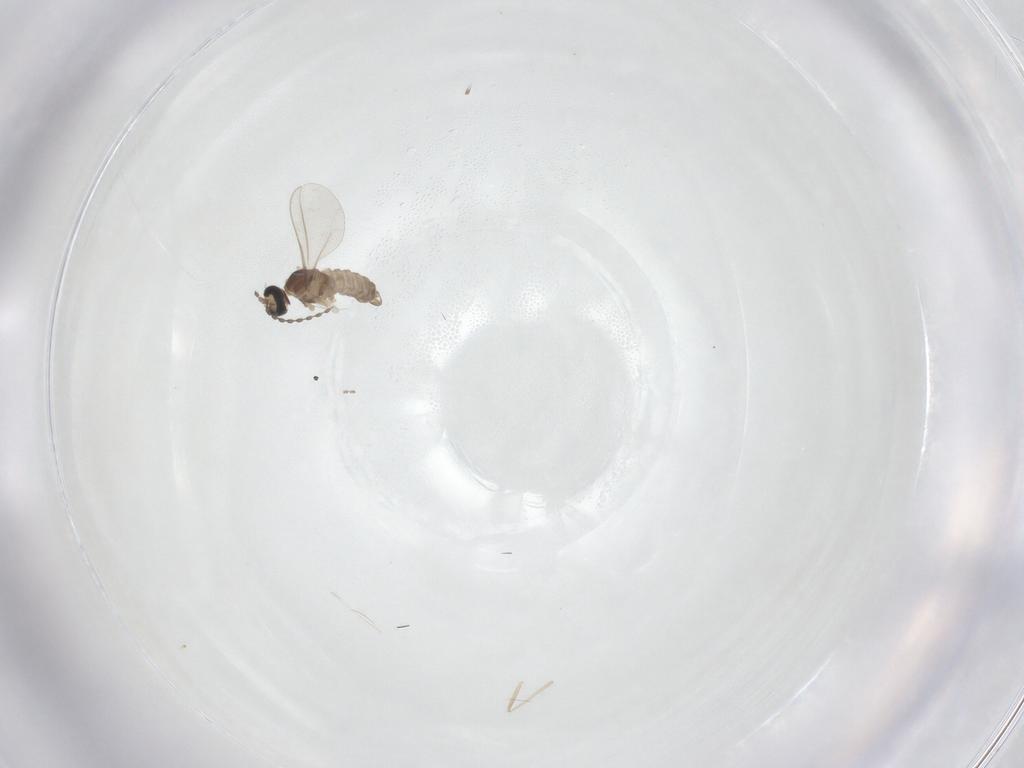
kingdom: Animalia
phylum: Arthropoda
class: Insecta
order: Diptera
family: Cecidomyiidae
